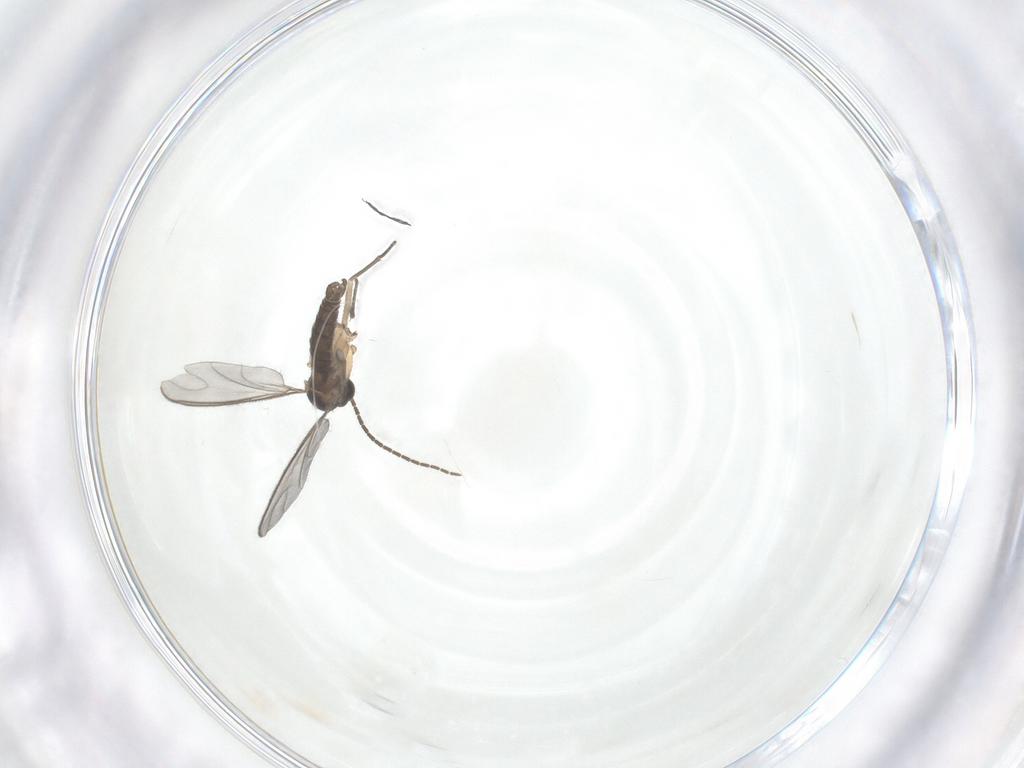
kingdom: Animalia
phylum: Arthropoda
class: Insecta
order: Diptera
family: Sciaridae
